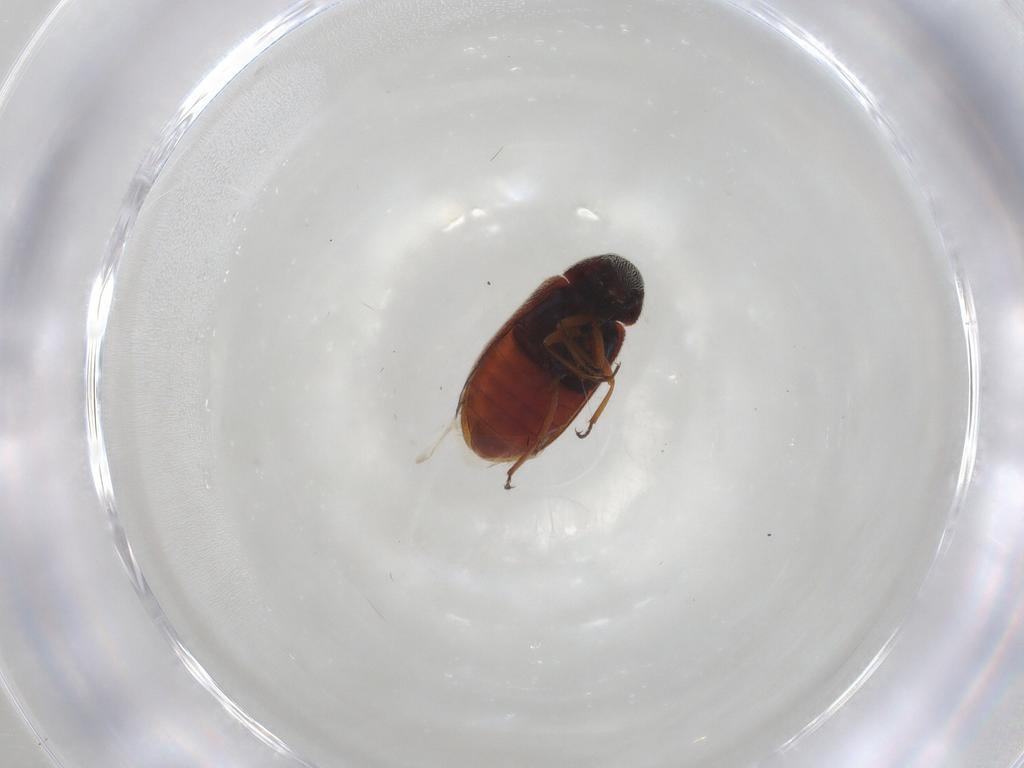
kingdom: Animalia
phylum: Arthropoda
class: Insecta
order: Coleoptera
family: Rhadalidae
